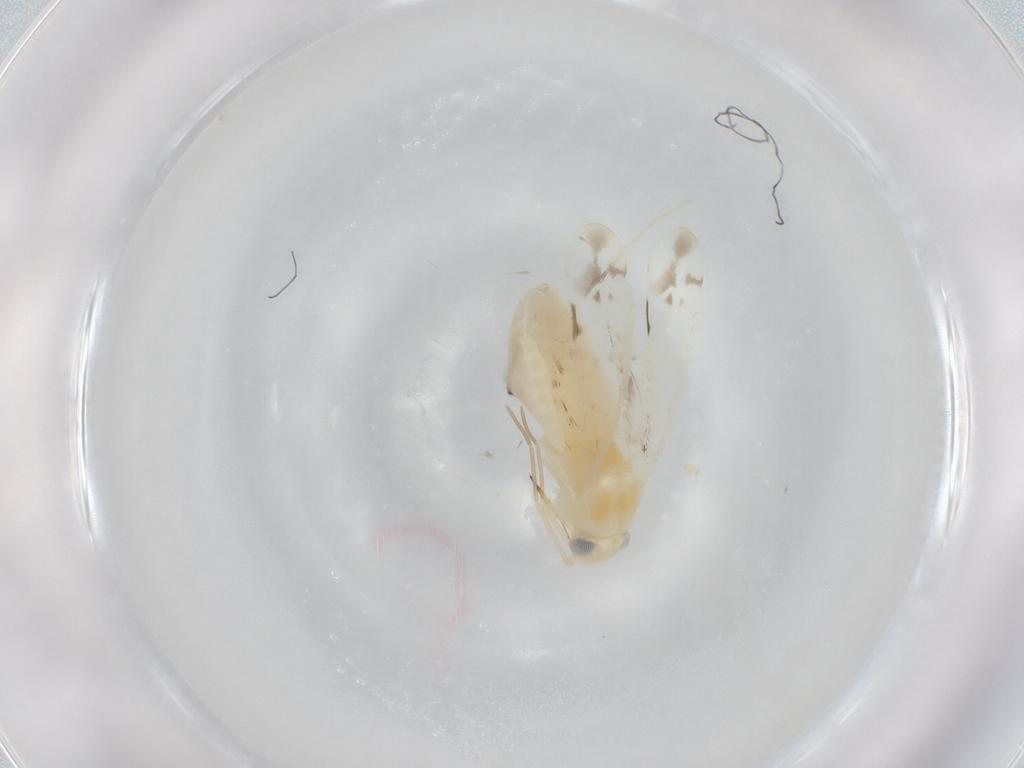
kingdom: Animalia
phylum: Arthropoda
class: Insecta
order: Hemiptera
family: Miridae
